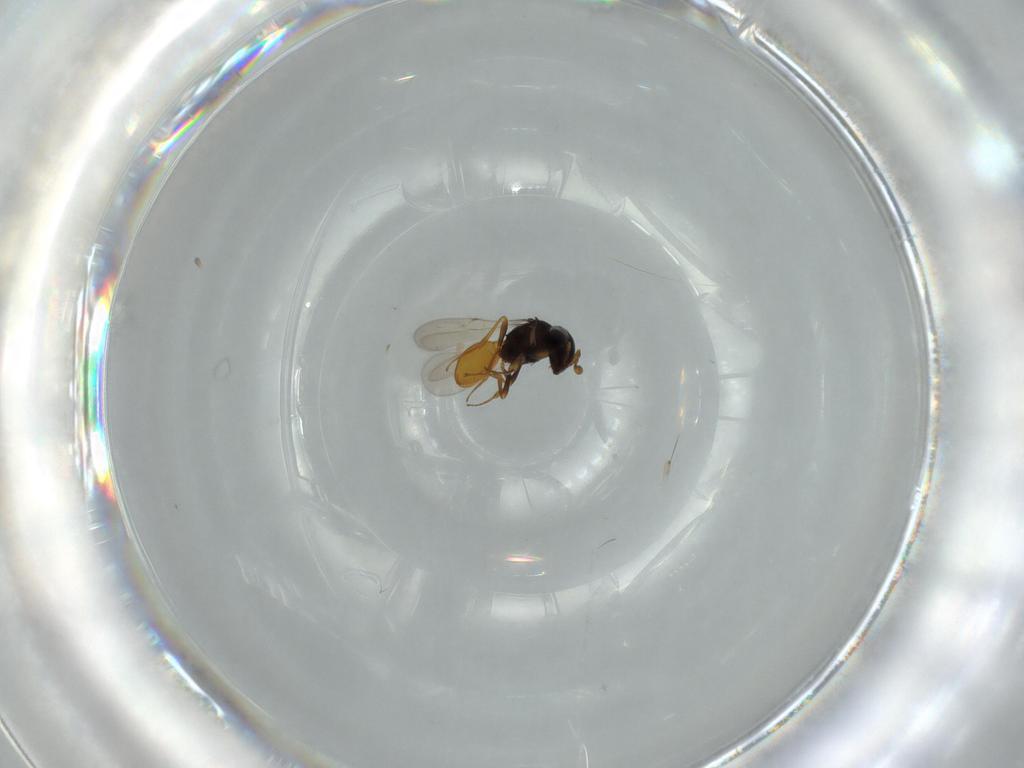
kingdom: Animalia
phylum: Arthropoda
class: Insecta
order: Hymenoptera
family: Scelionidae
